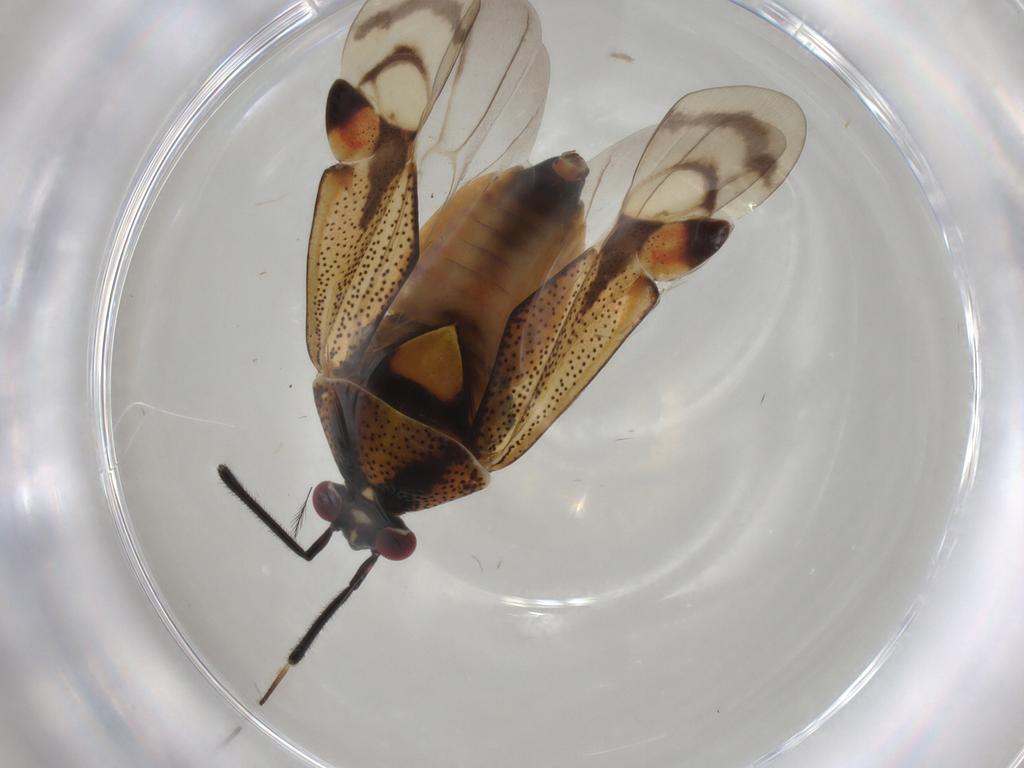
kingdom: Animalia
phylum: Arthropoda
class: Insecta
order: Hemiptera
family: Miridae
